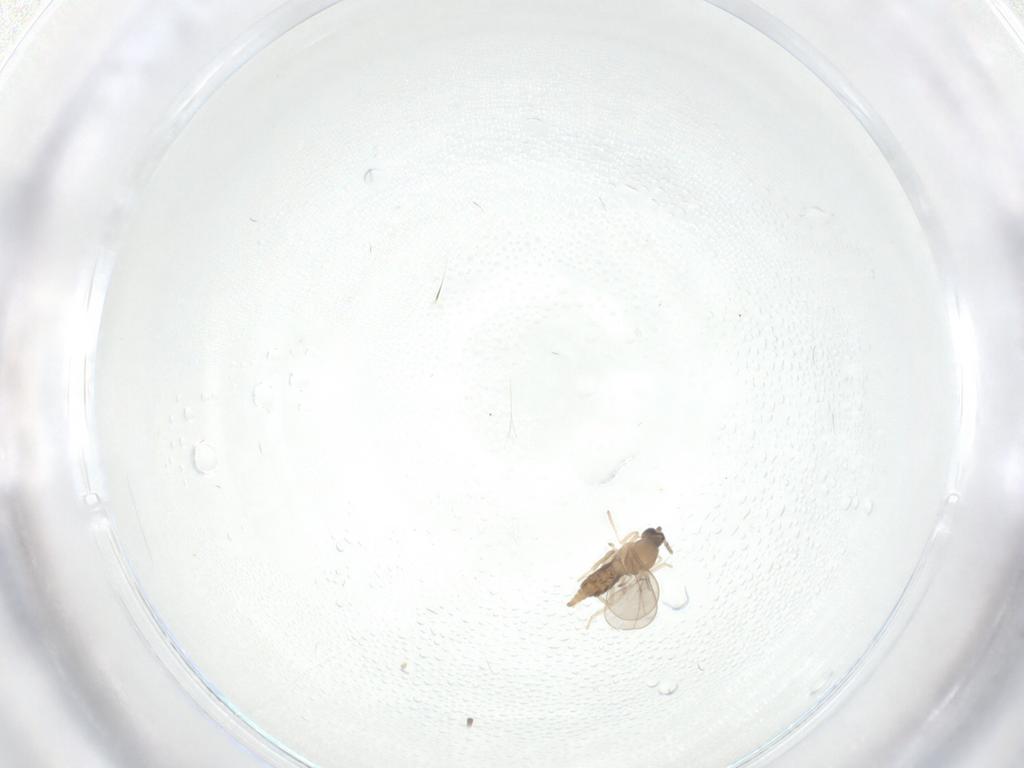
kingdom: Animalia
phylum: Arthropoda
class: Insecta
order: Diptera
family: Cecidomyiidae
